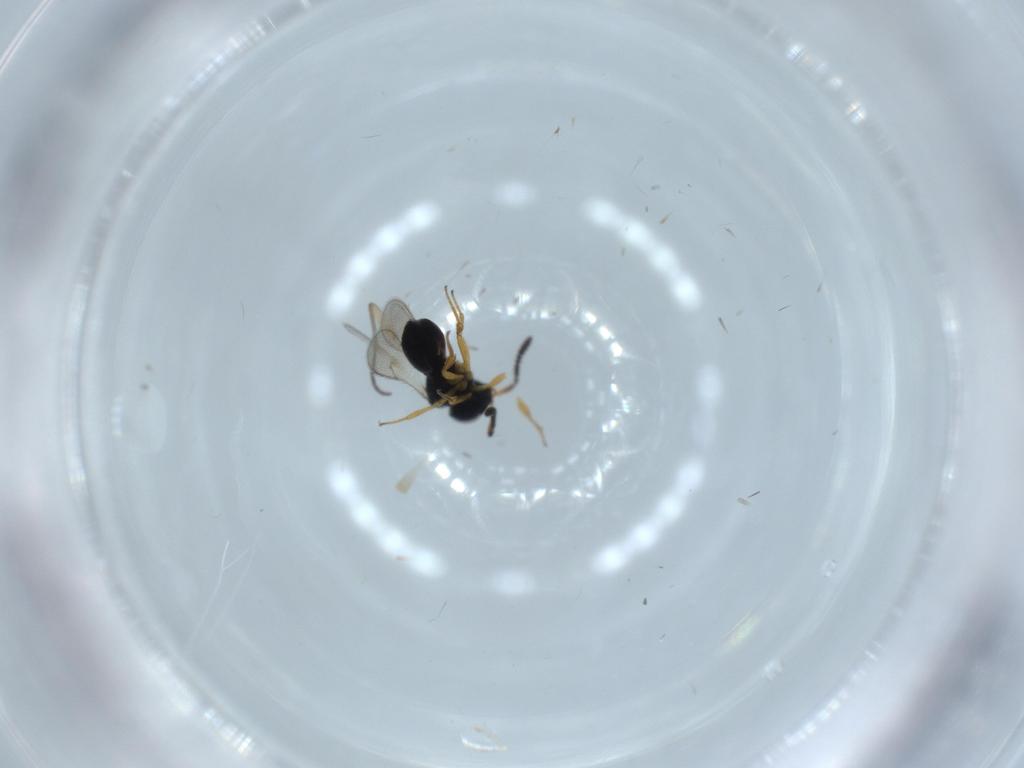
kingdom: Animalia
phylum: Arthropoda
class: Insecta
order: Hymenoptera
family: Scelionidae
